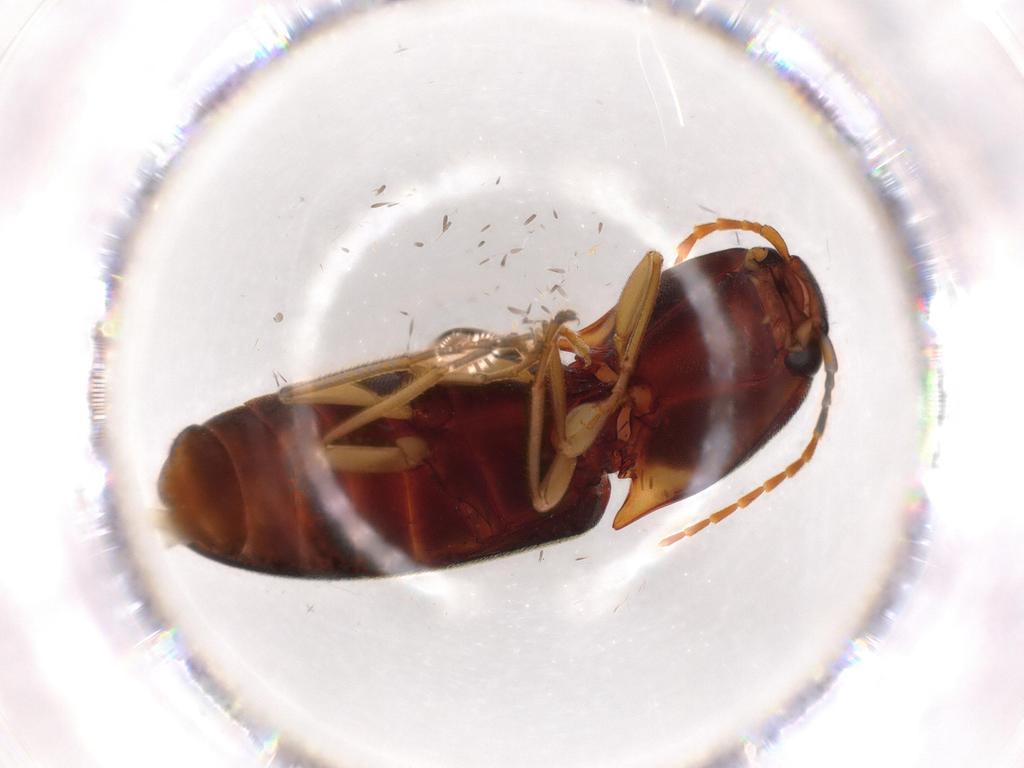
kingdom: Animalia
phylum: Arthropoda
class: Insecta
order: Coleoptera
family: Elateridae
